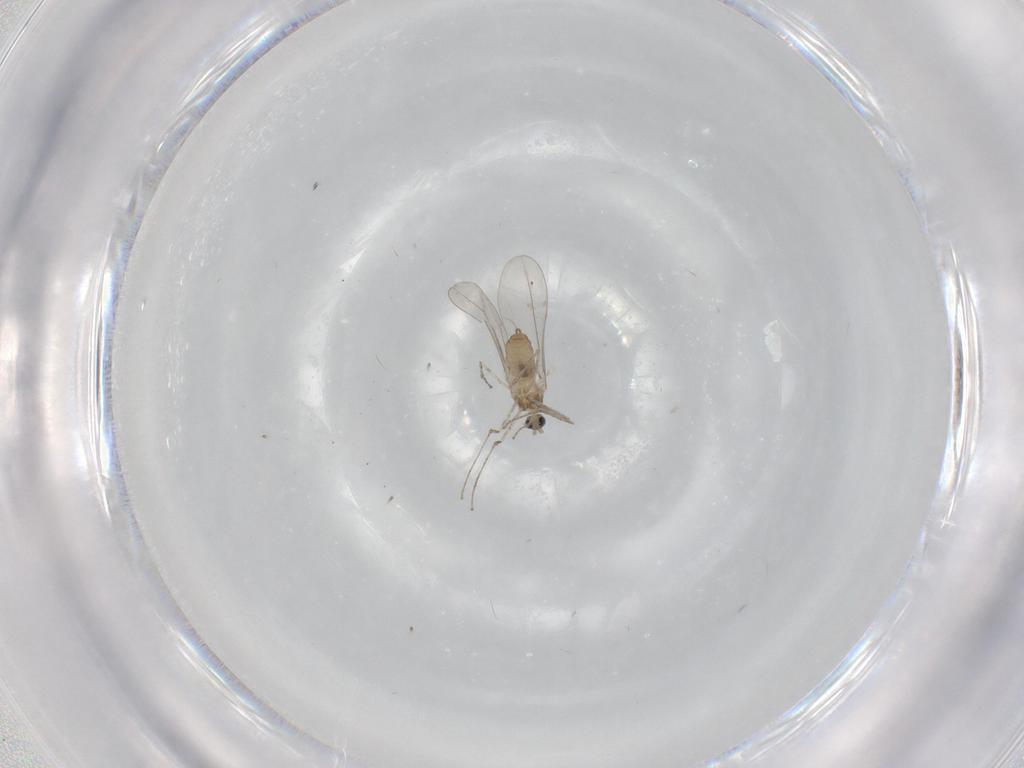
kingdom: Animalia
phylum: Arthropoda
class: Insecta
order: Diptera
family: Cecidomyiidae
